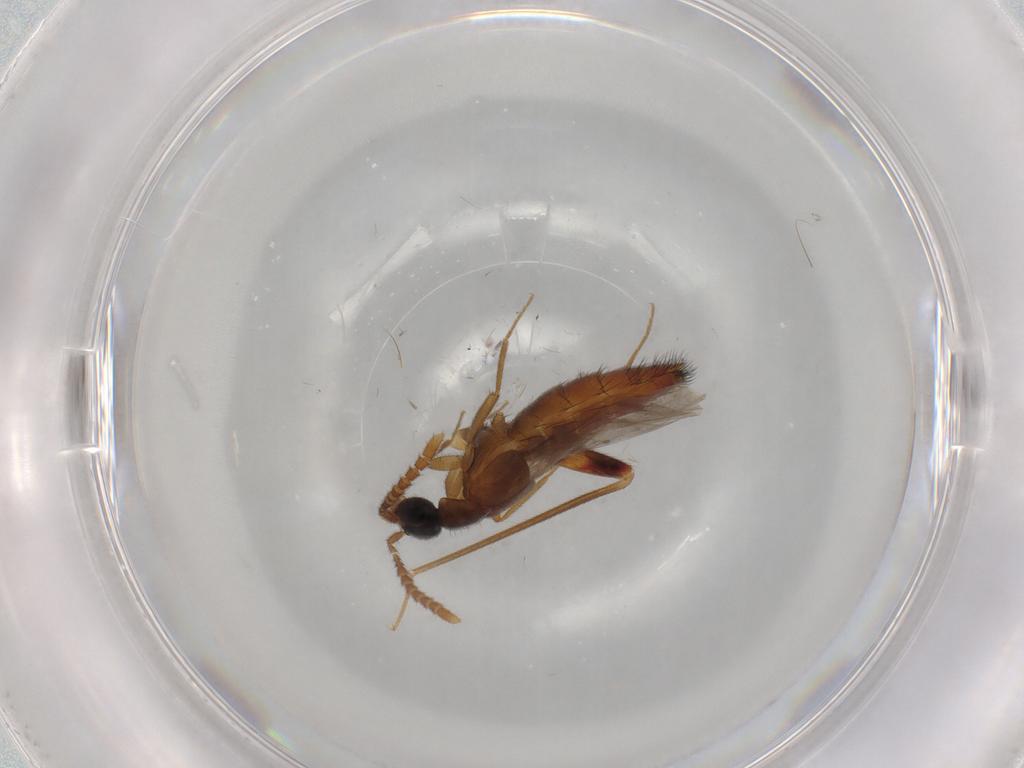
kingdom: Animalia
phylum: Arthropoda
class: Insecta
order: Coleoptera
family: Staphylinidae
